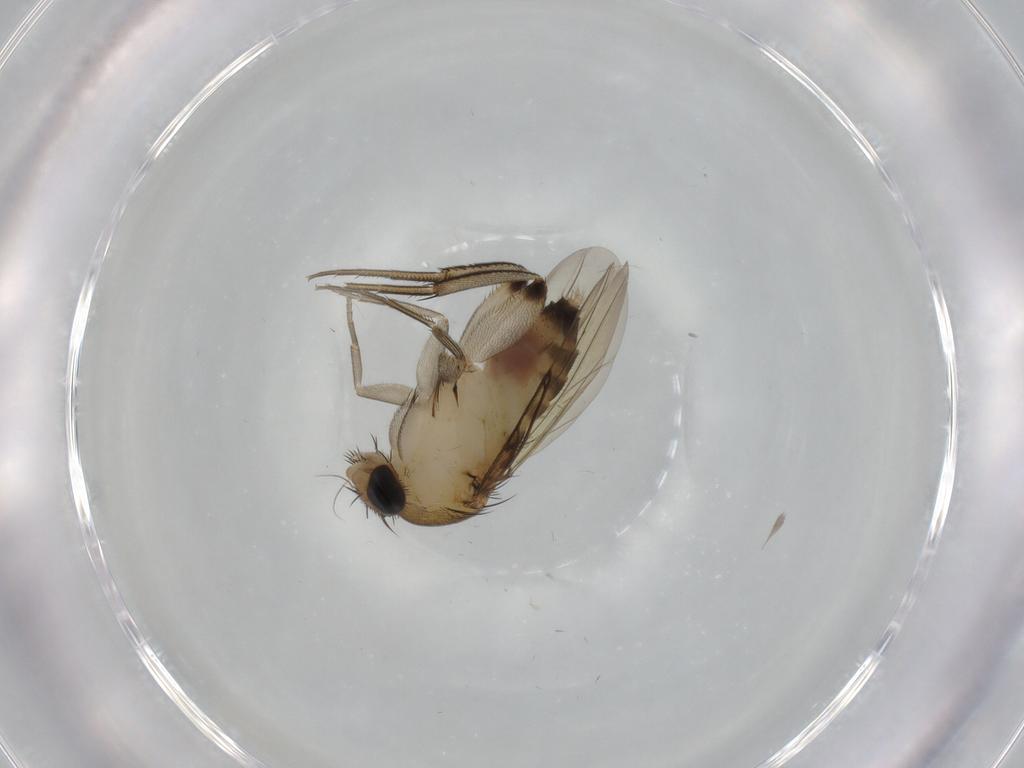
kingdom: Animalia
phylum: Arthropoda
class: Insecta
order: Diptera
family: Phoridae
